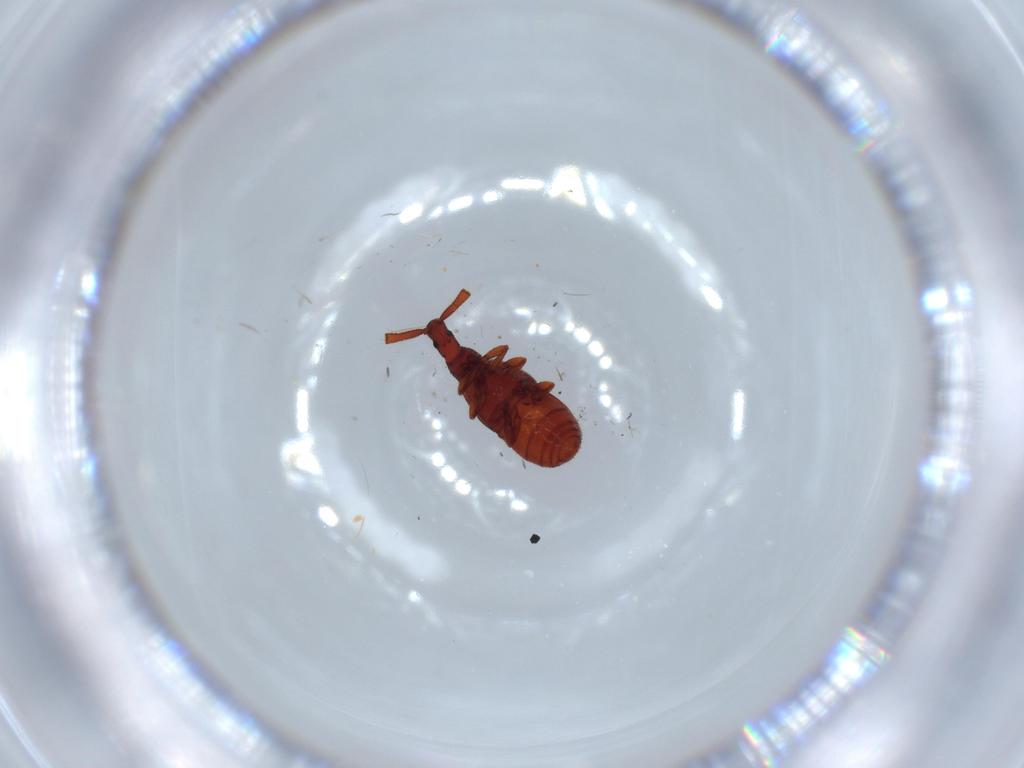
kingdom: Animalia
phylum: Arthropoda
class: Insecta
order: Coleoptera
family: Staphylinidae
